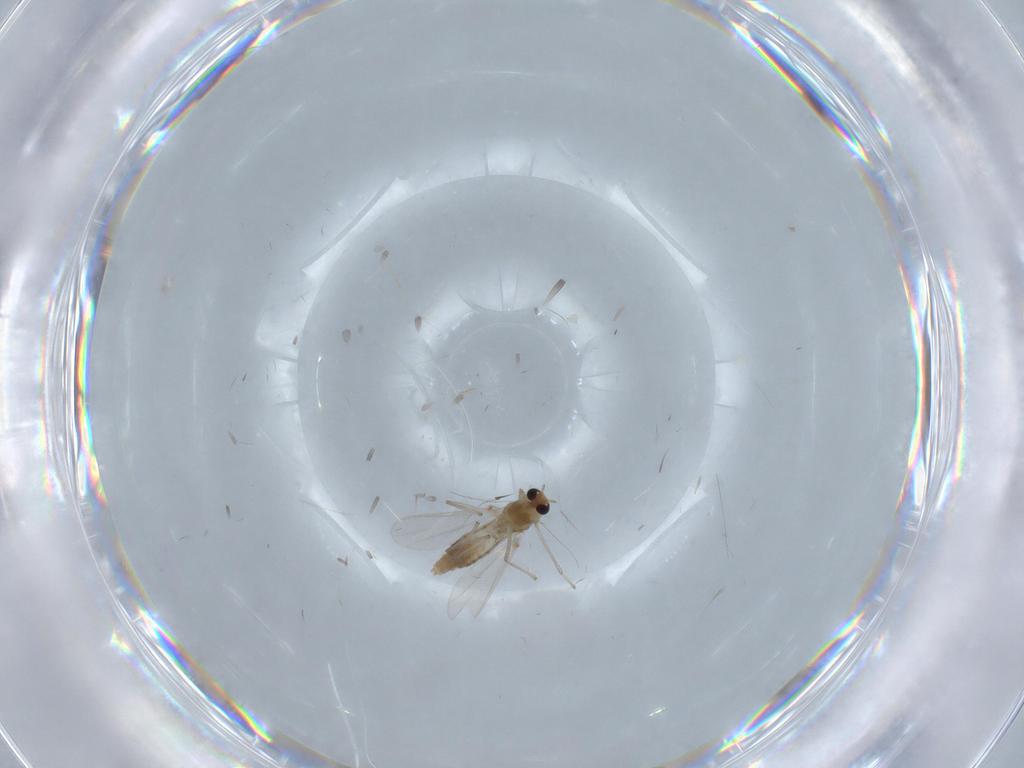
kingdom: Animalia
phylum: Arthropoda
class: Insecta
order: Diptera
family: Chironomidae
